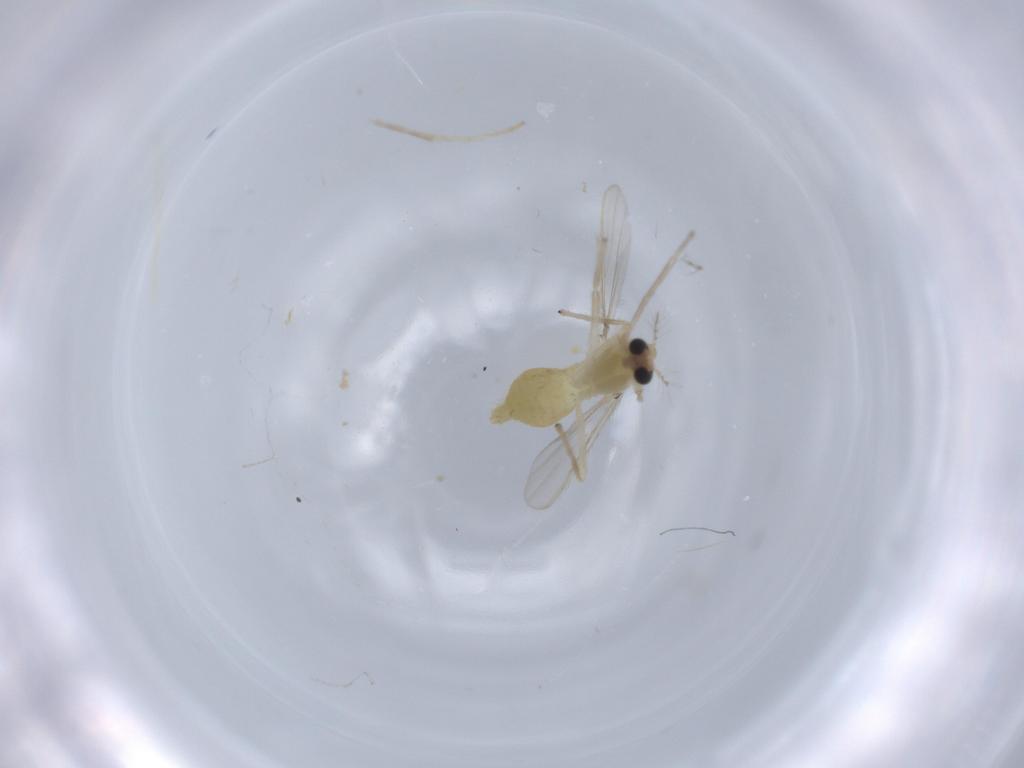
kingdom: Animalia
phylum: Arthropoda
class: Insecta
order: Diptera
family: Chironomidae
